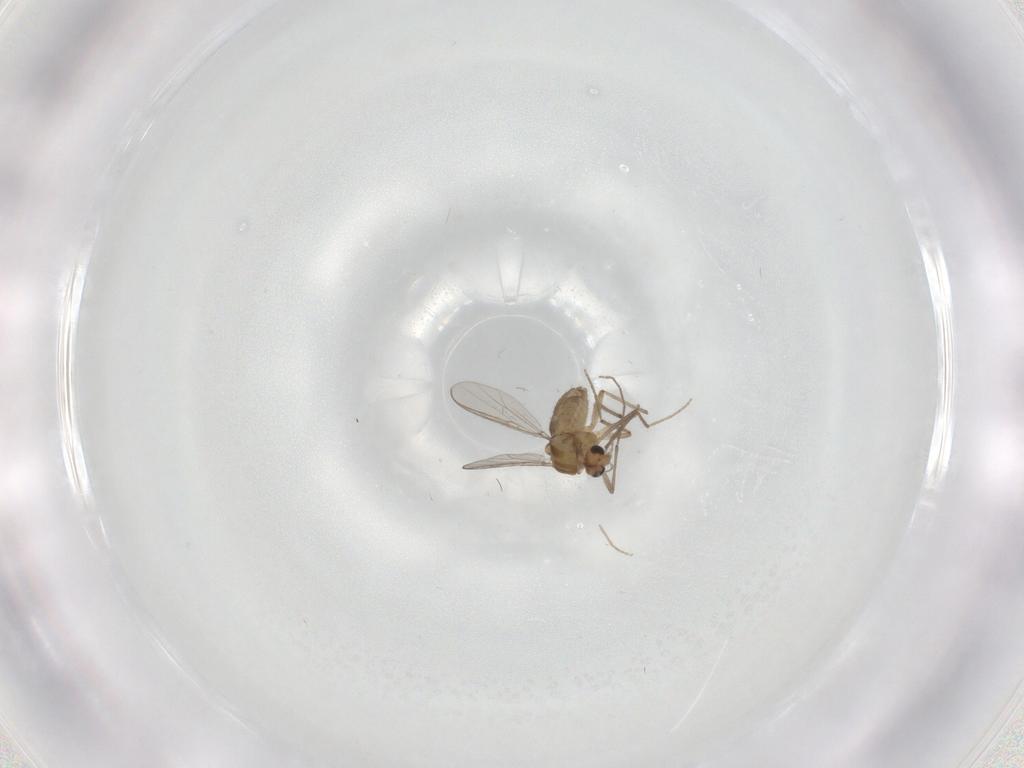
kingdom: Animalia
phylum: Arthropoda
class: Insecta
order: Diptera
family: Chironomidae
